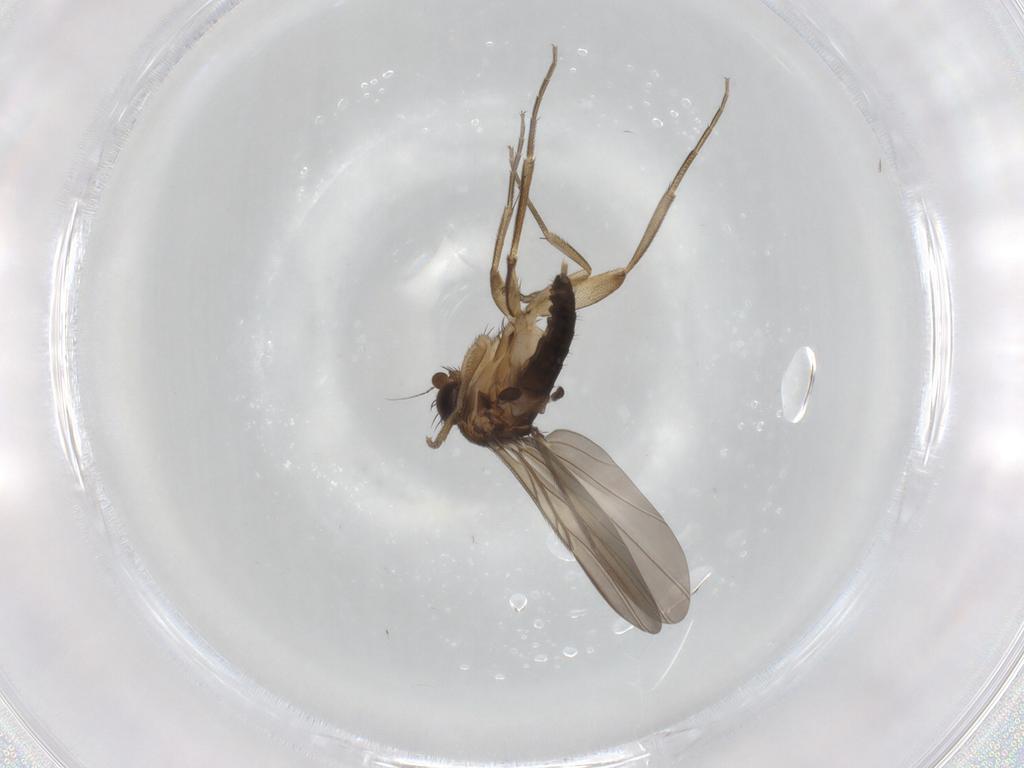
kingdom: Animalia
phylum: Arthropoda
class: Insecta
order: Diptera
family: Phoridae
